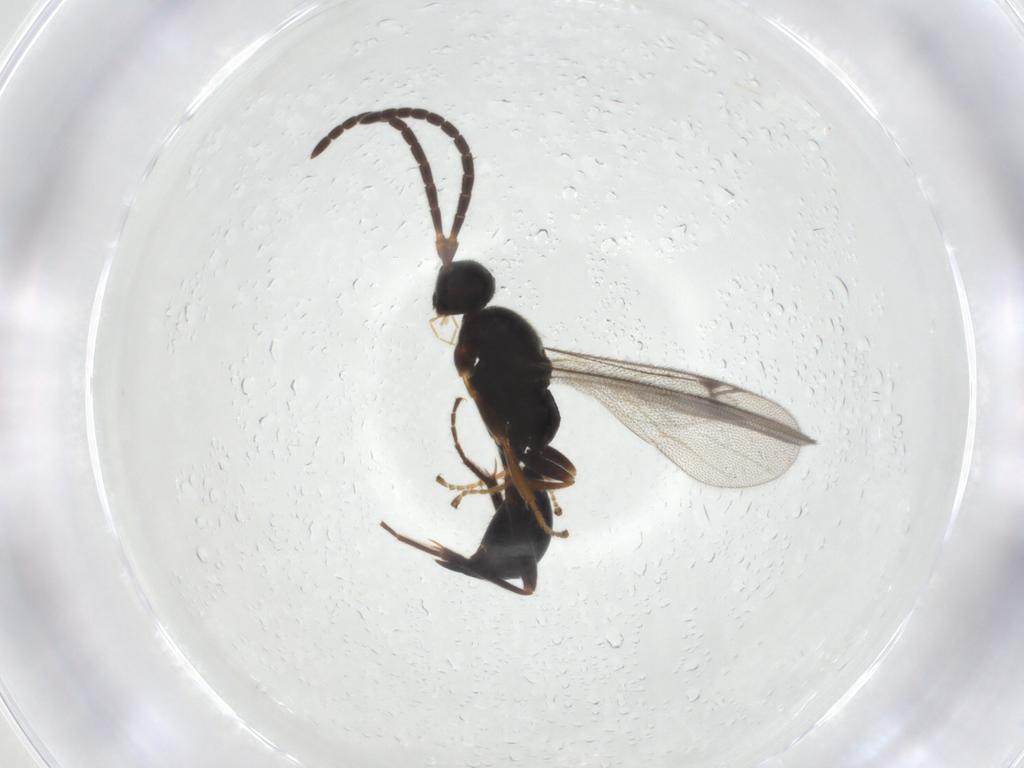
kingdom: Animalia
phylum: Arthropoda
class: Insecta
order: Hymenoptera
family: Proctotrupidae
